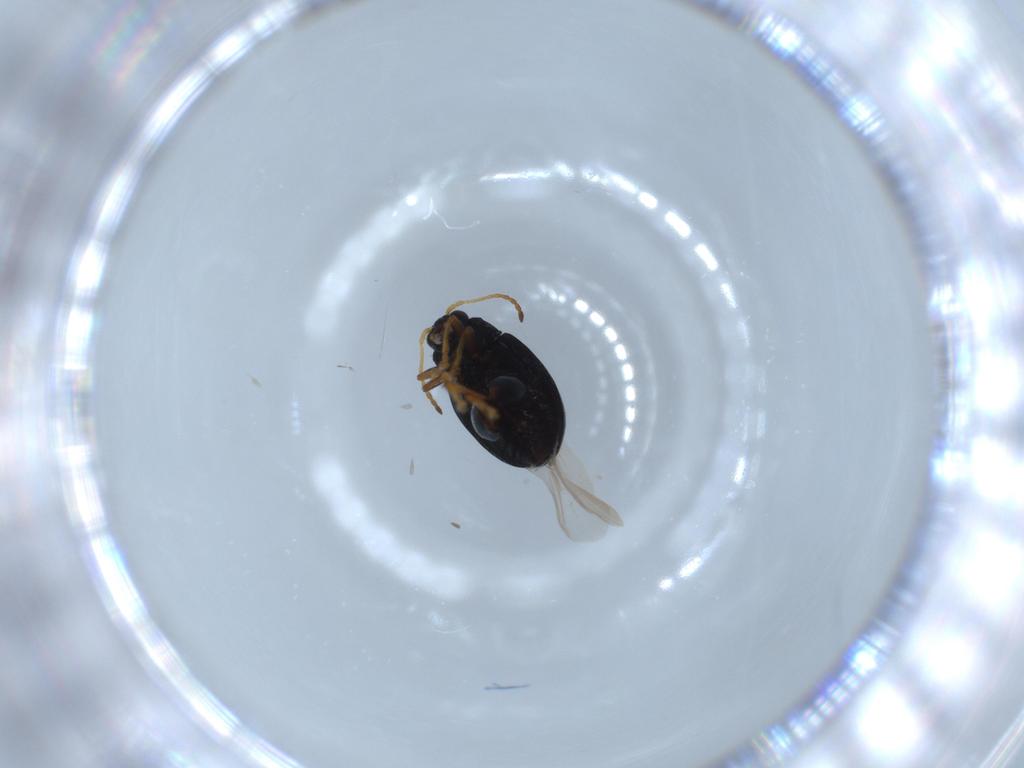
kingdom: Animalia
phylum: Arthropoda
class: Insecta
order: Coleoptera
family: Chrysomelidae
